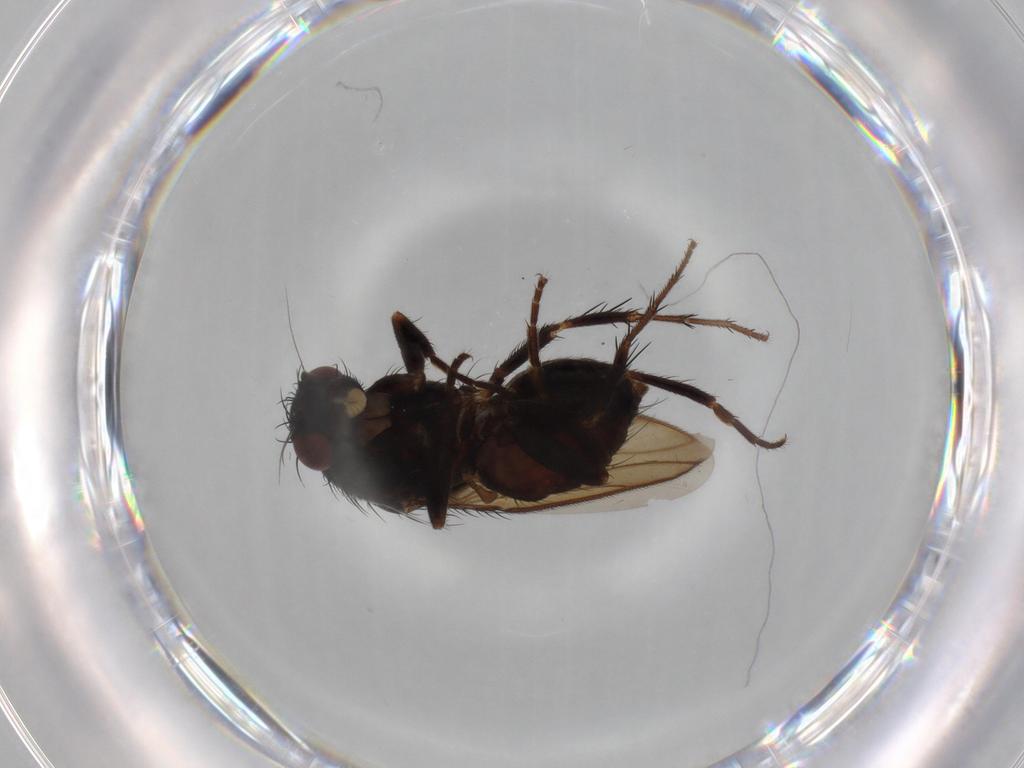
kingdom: Animalia
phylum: Arthropoda
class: Insecta
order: Diptera
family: Sphaeroceridae
